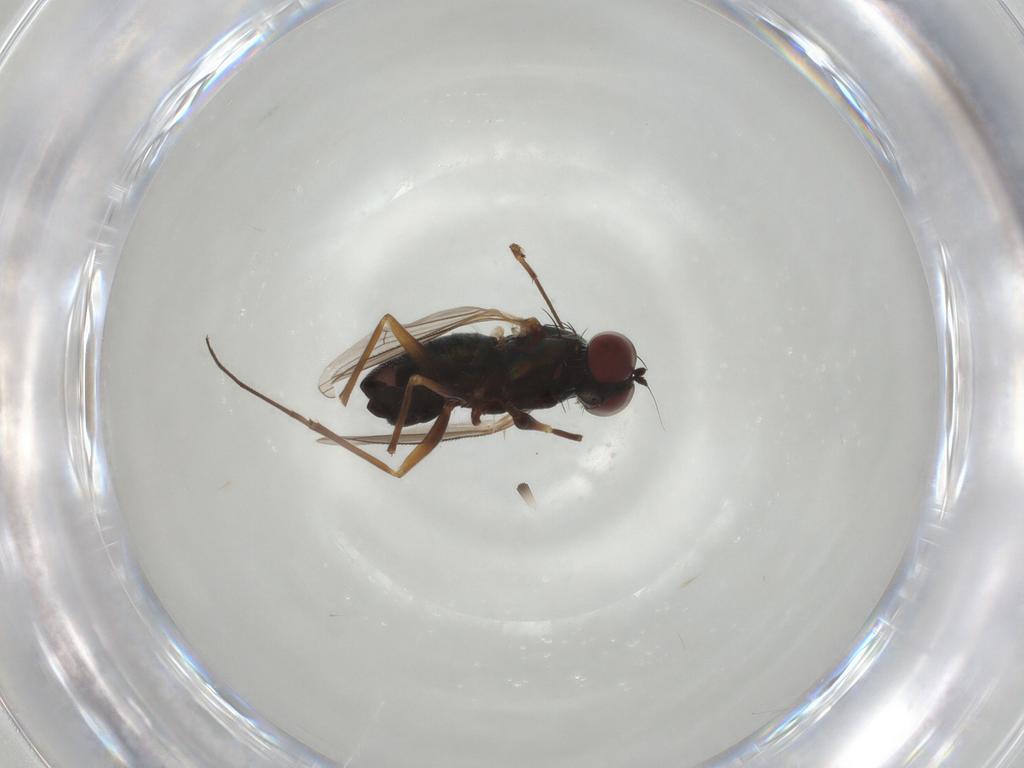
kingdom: Animalia
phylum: Arthropoda
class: Insecta
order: Diptera
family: Dolichopodidae
